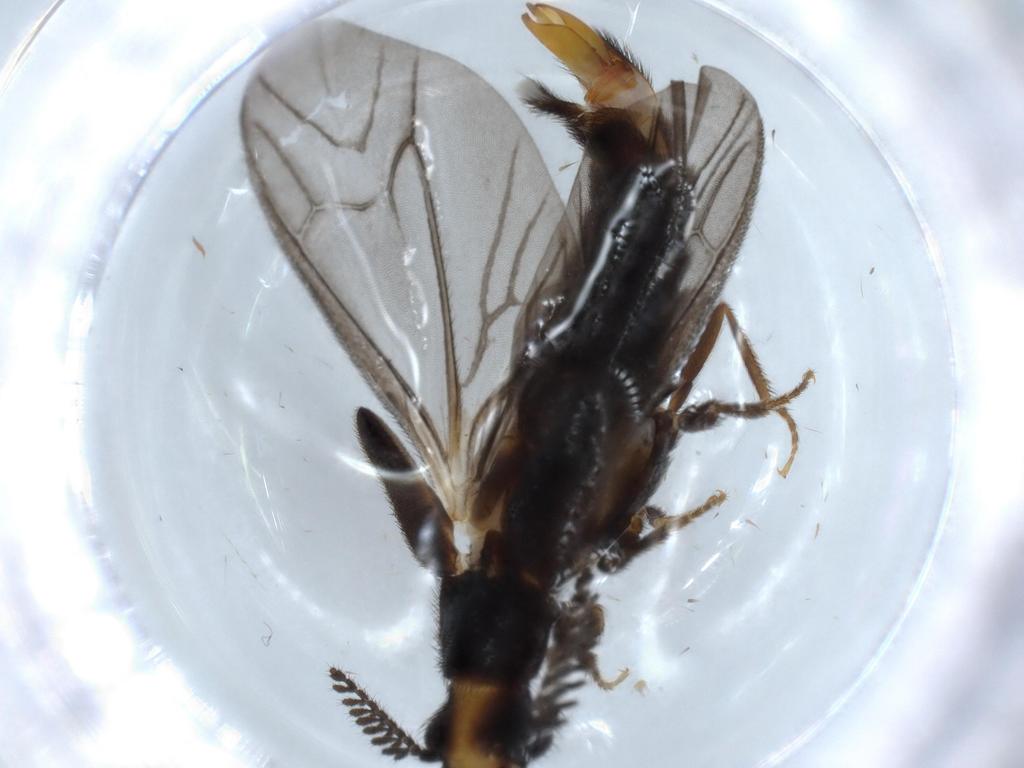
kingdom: Animalia
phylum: Arthropoda
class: Insecta
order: Coleoptera
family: Phengodidae
